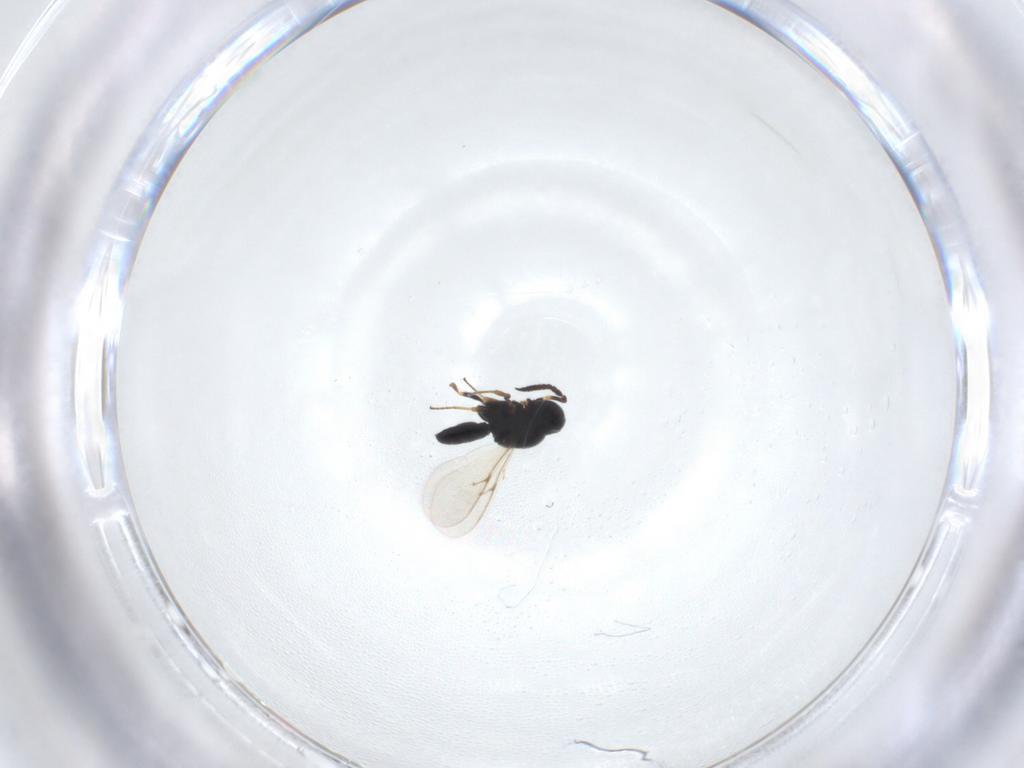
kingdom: Animalia
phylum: Arthropoda
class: Insecta
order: Hymenoptera
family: Scelionidae
